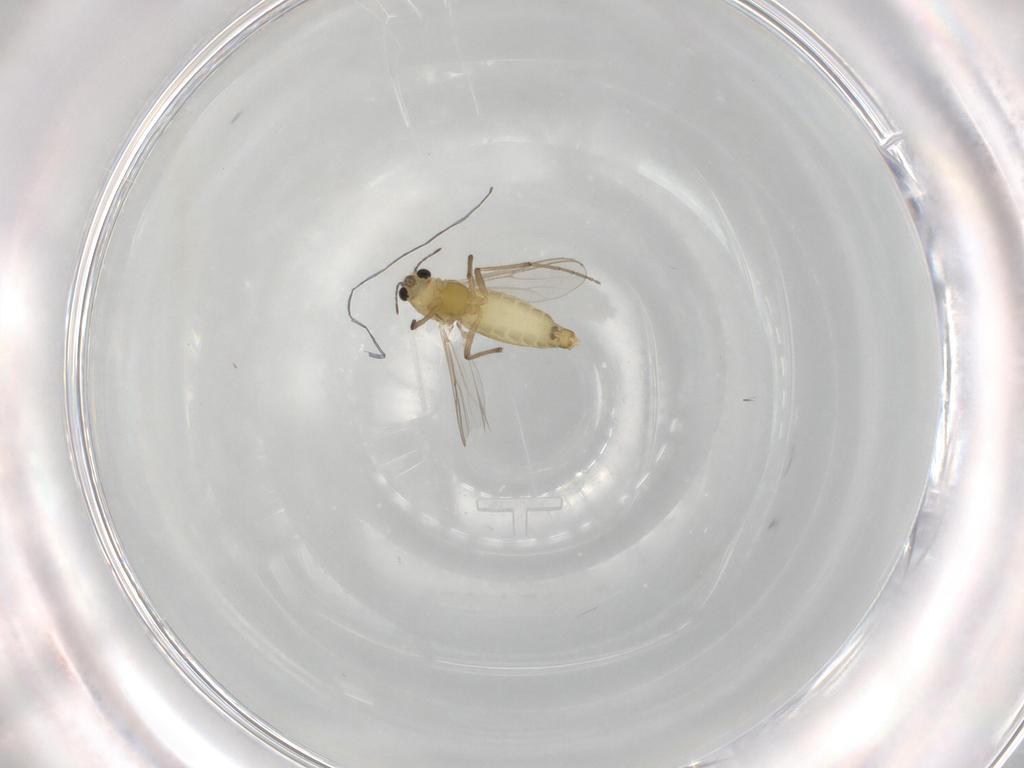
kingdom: Animalia
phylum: Arthropoda
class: Insecta
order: Diptera
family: Chironomidae
